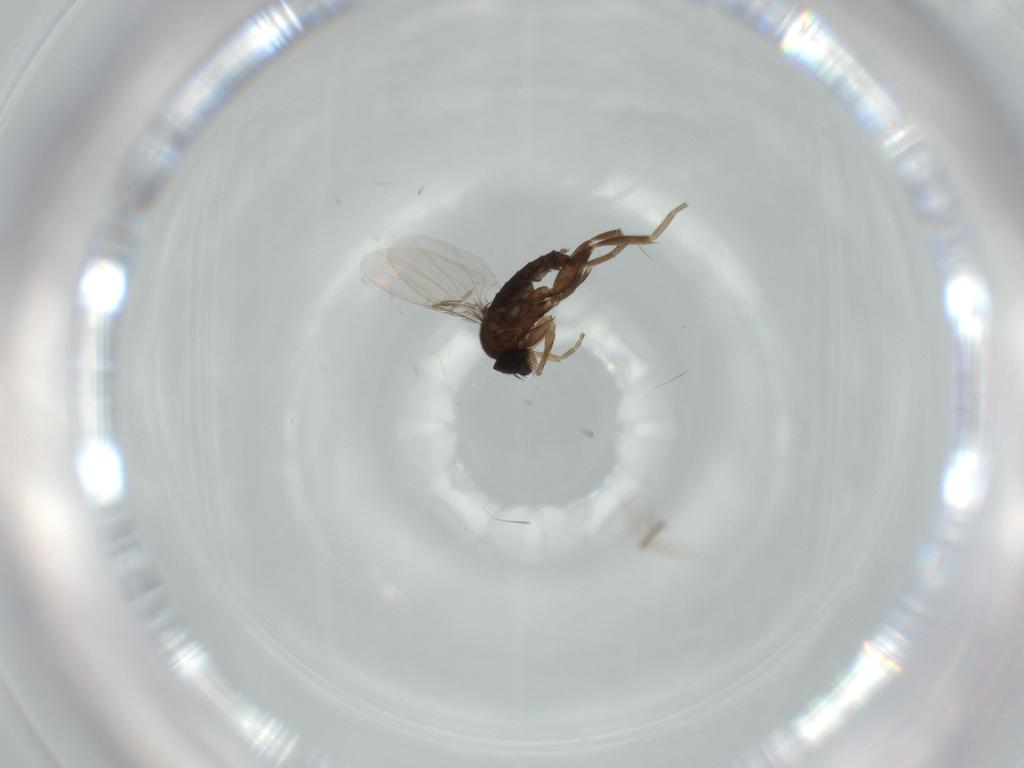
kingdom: Animalia
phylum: Arthropoda
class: Insecta
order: Diptera
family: Phoridae
